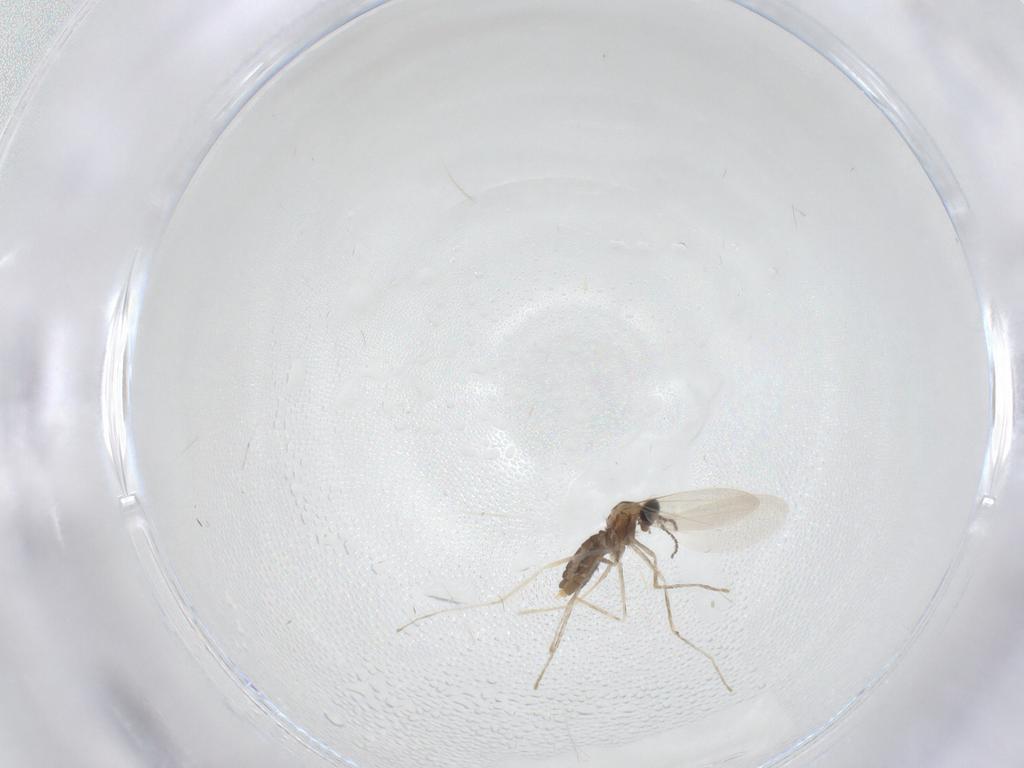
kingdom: Animalia
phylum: Arthropoda
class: Insecta
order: Diptera
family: Cecidomyiidae
